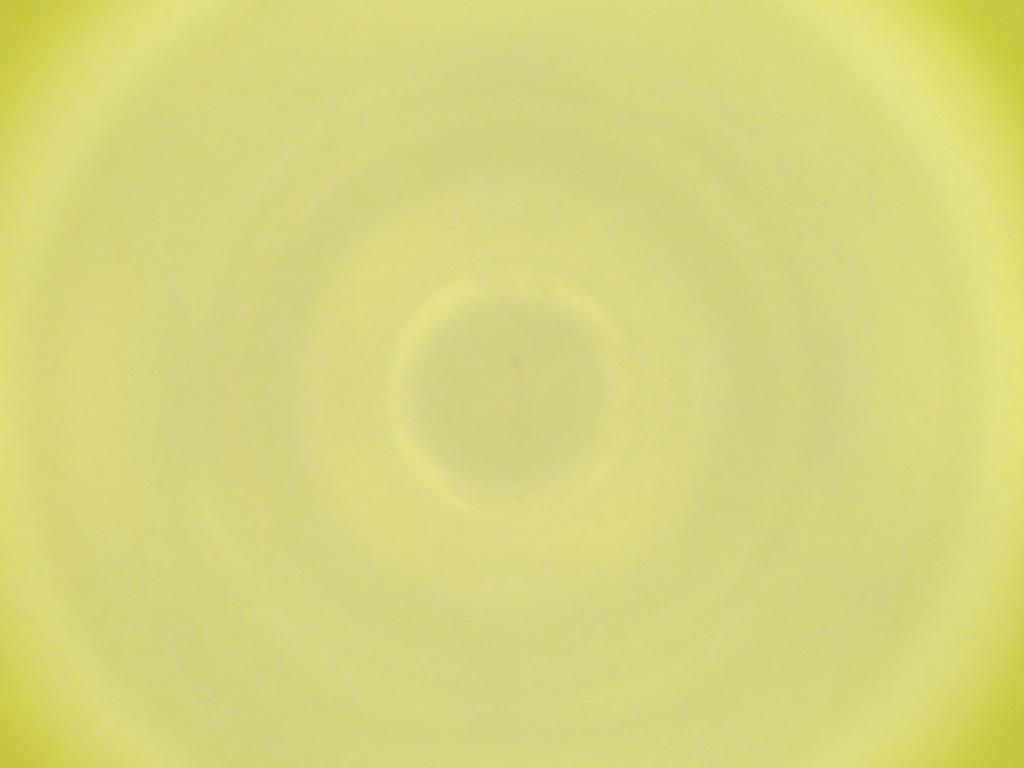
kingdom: Animalia
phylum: Arthropoda
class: Insecta
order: Diptera
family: Cecidomyiidae
